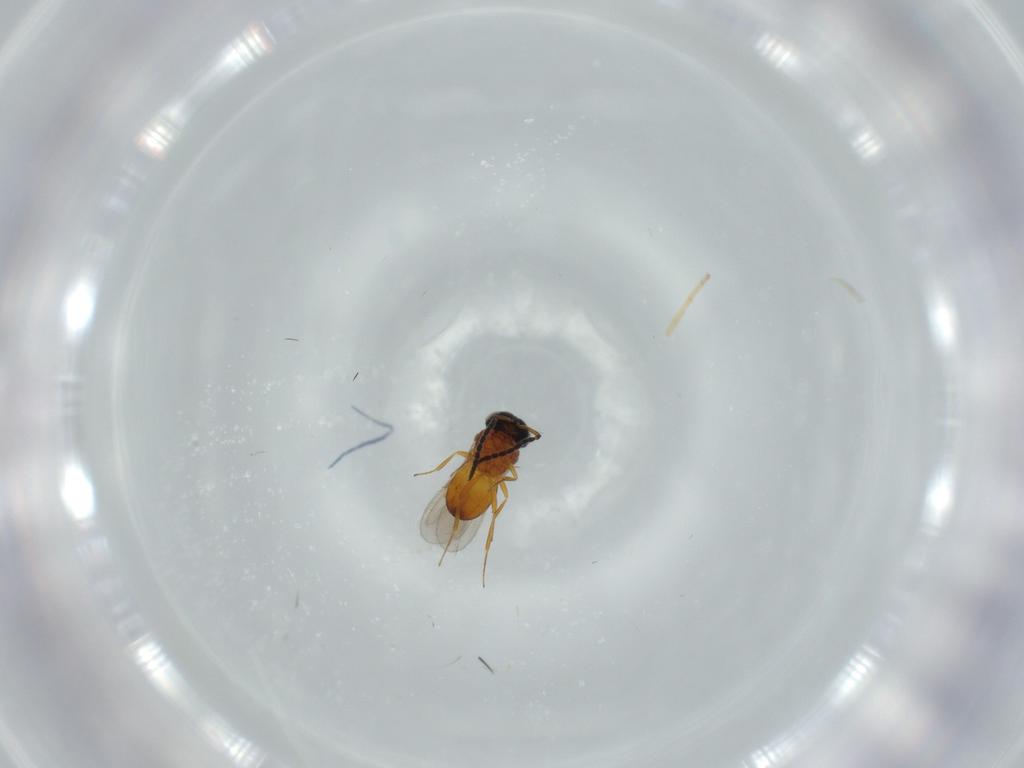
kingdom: Animalia
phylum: Arthropoda
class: Insecta
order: Hymenoptera
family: Scelionidae
